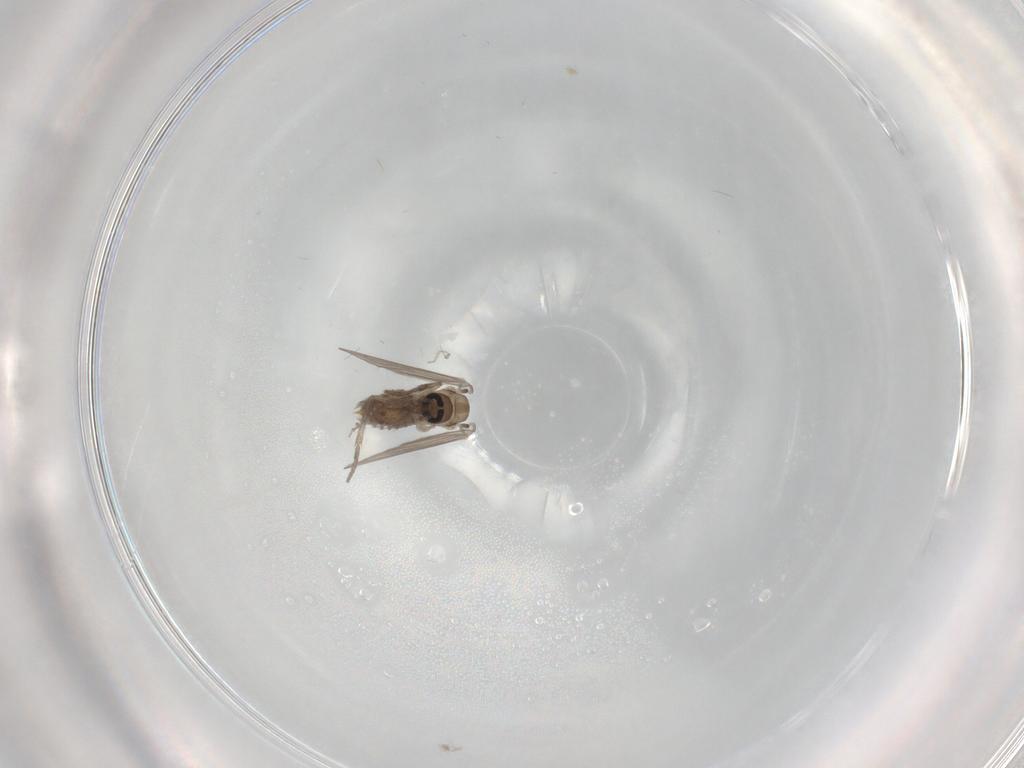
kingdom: Animalia
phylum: Arthropoda
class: Insecta
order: Diptera
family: Psychodidae
